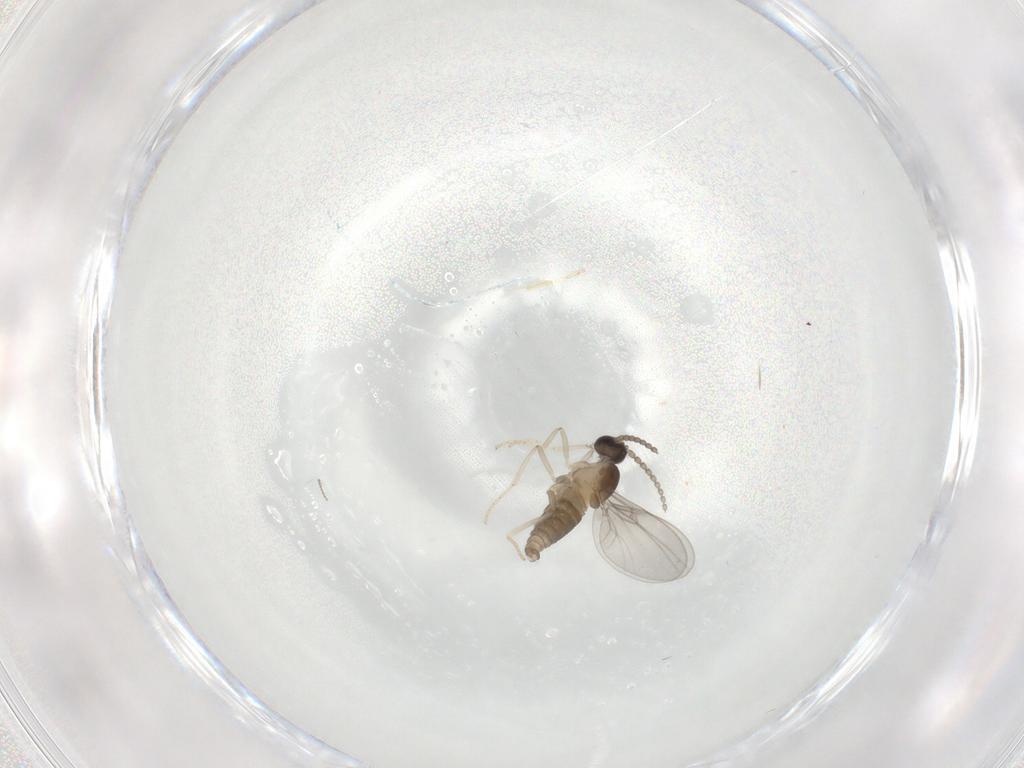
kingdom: Animalia
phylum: Arthropoda
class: Insecta
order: Diptera
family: Cecidomyiidae
